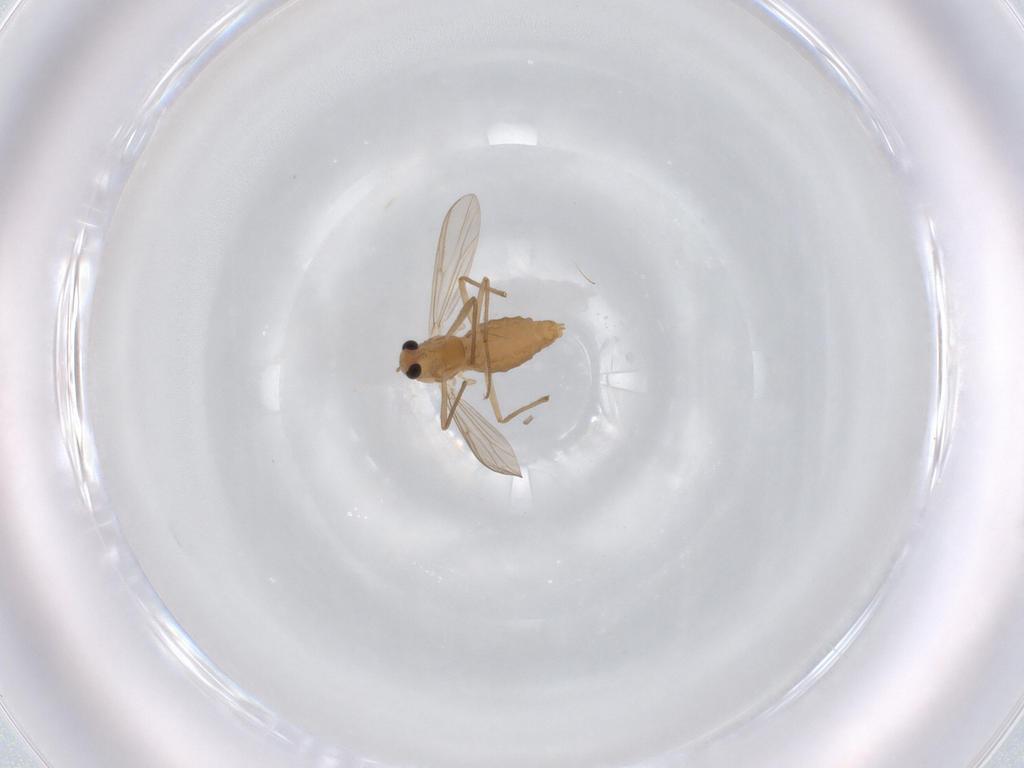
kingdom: Animalia
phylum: Arthropoda
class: Insecta
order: Diptera
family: Chironomidae
